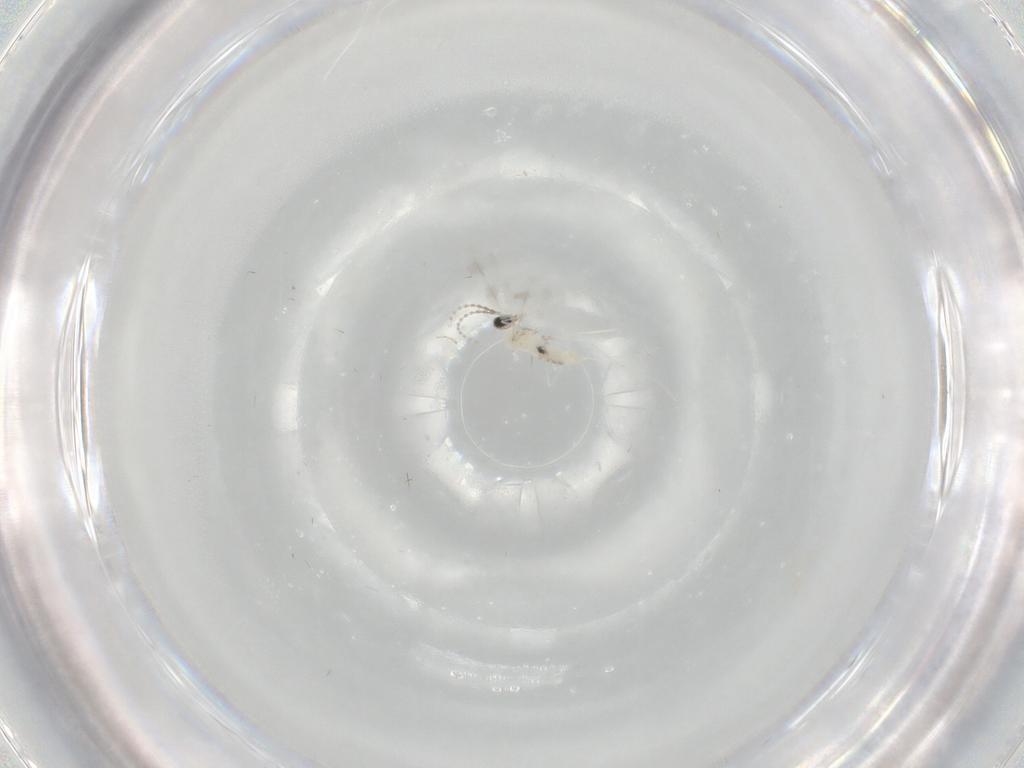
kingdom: Animalia
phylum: Arthropoda
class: Insecta
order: Diptera
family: Cecidomyiidae
